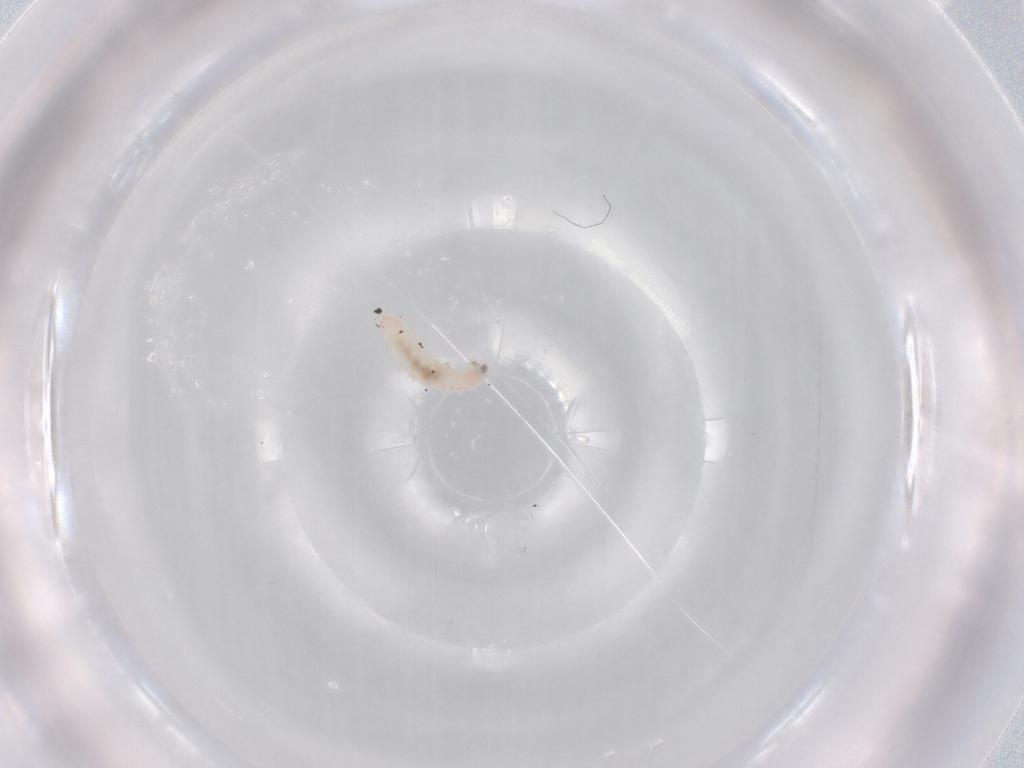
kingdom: Animalia
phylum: Arthropoda
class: Insecta
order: Diptera
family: Cecidomyiidae
